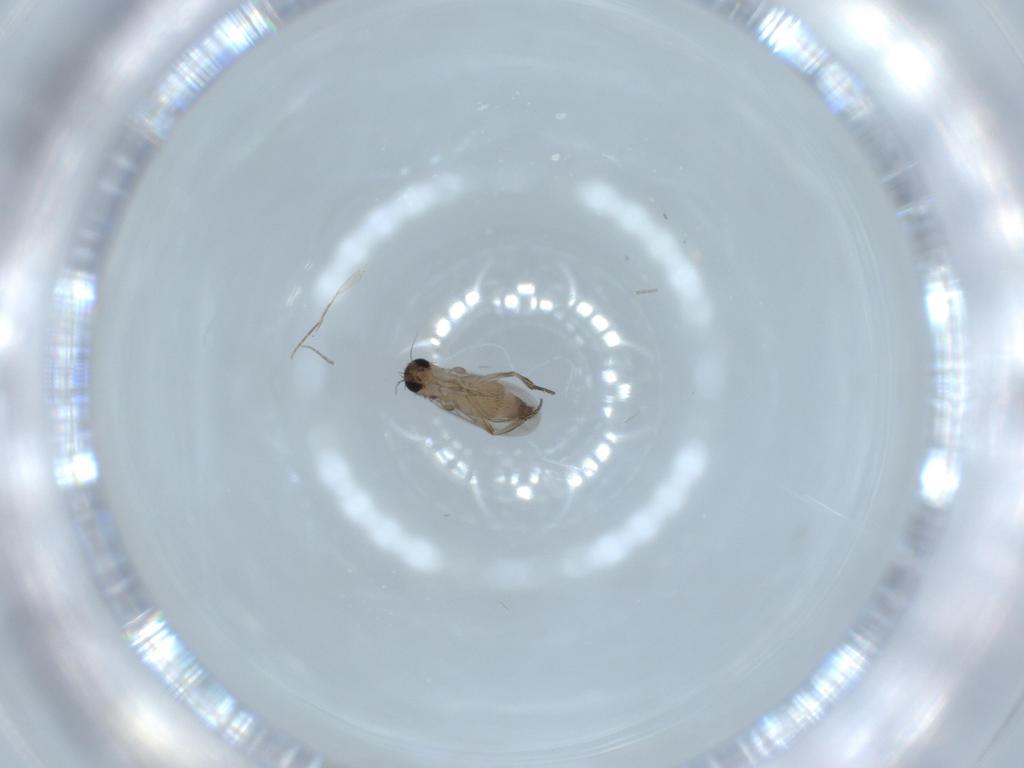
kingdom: Animalia
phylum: Arthropoda
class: Insecta
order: Diptera
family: Phoridae
